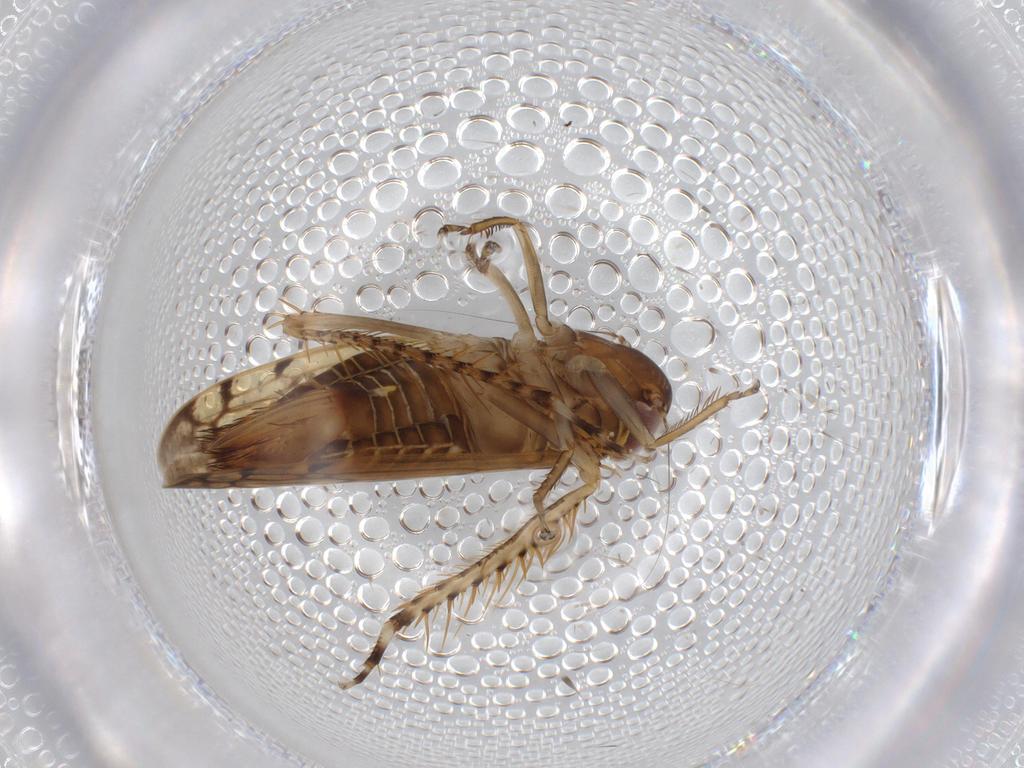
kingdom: Animalia
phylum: Arthropoda
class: Insecta
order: Hemiptera
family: Cicadellidae
